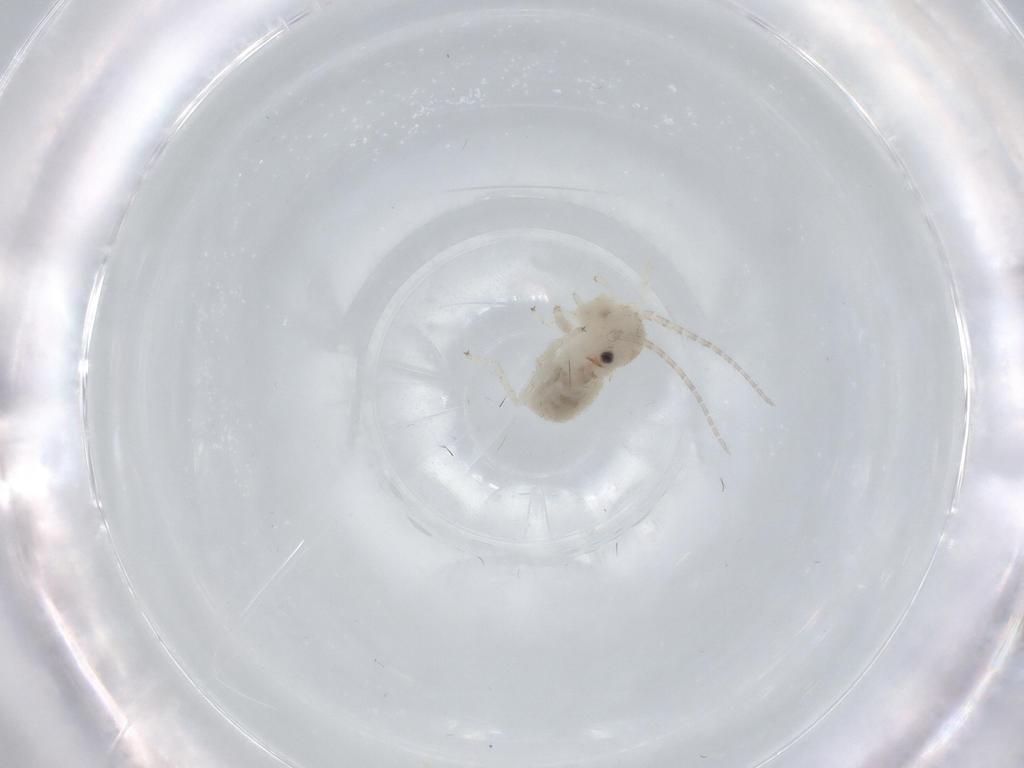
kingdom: Animalia
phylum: Arthropoda
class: Insecta
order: Psocodea
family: Amphipsocidae
